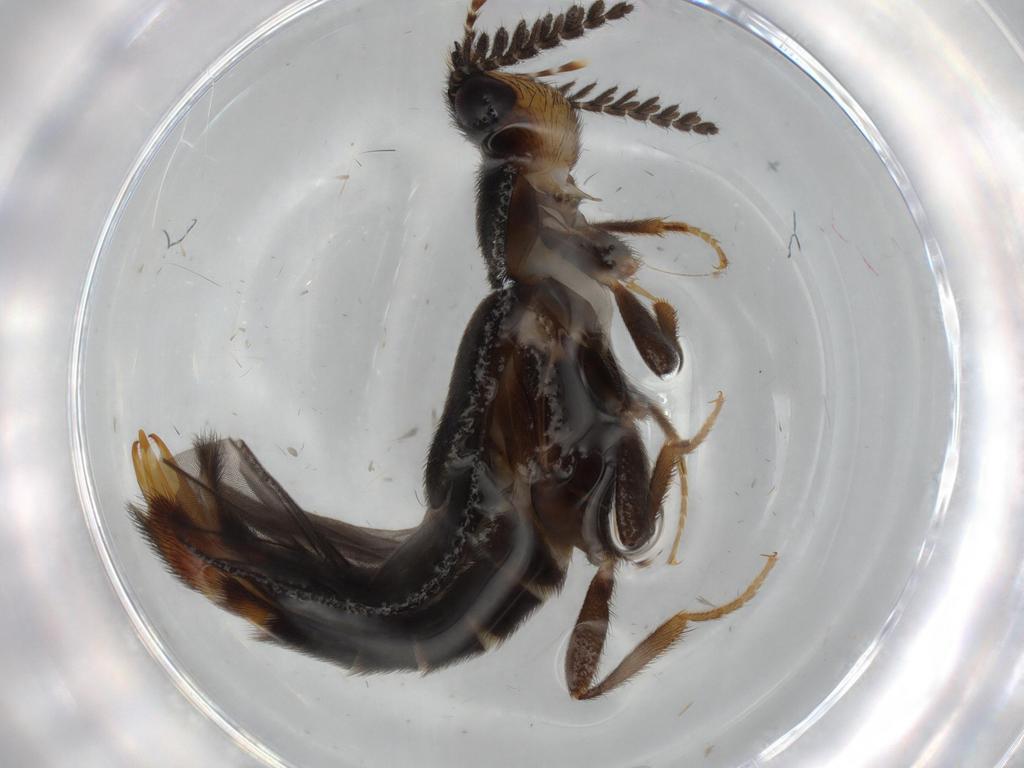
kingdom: Animalia
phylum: Arthropoda
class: Insecta
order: Coleoptera
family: Phengodidae
